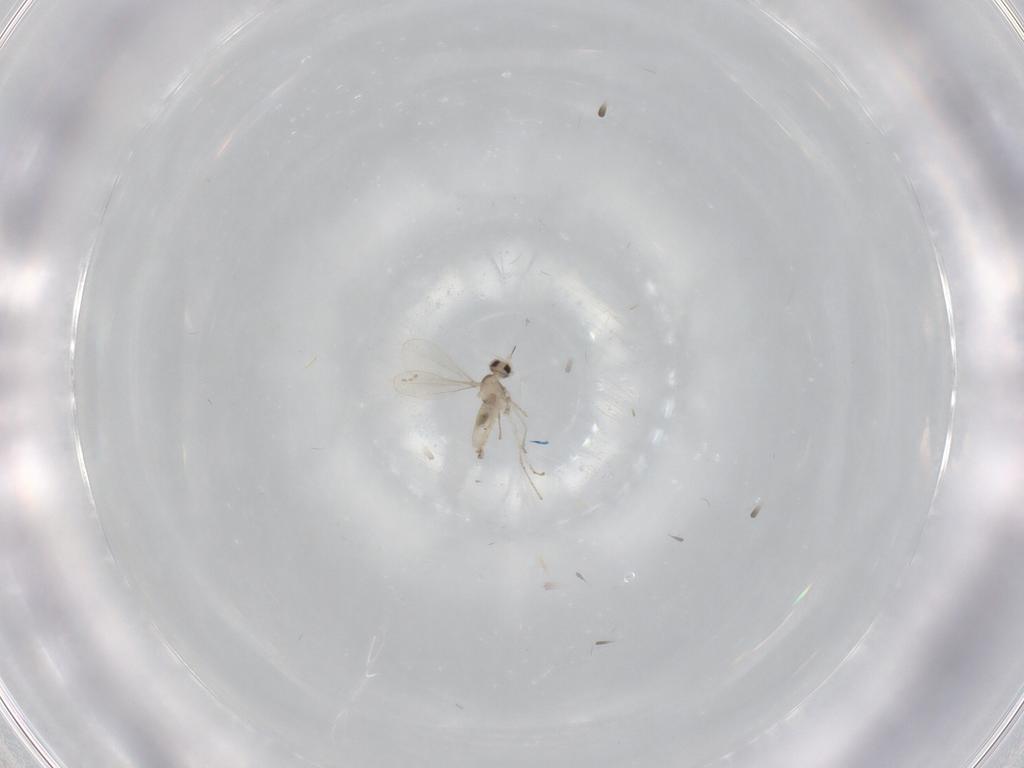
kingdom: Animalia
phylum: Arthropoda
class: Insecta
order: Diptera
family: Cecidomyiidae
